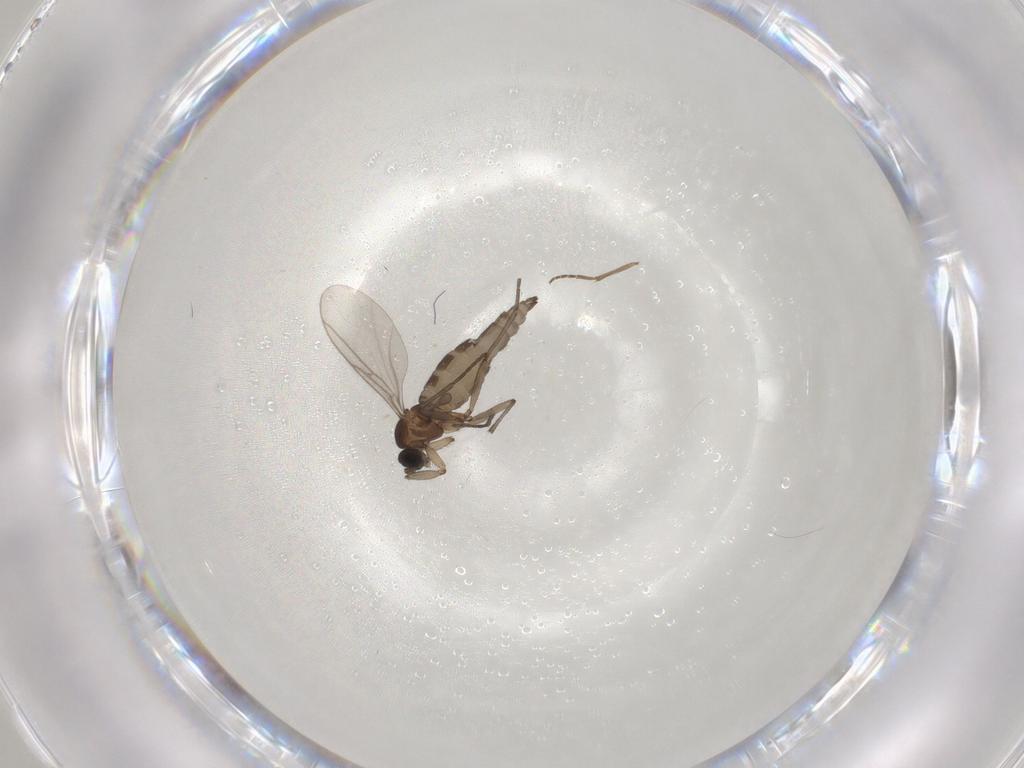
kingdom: Animalia
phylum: Arthropoda
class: Insecta
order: Diptera
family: Sciaridae
